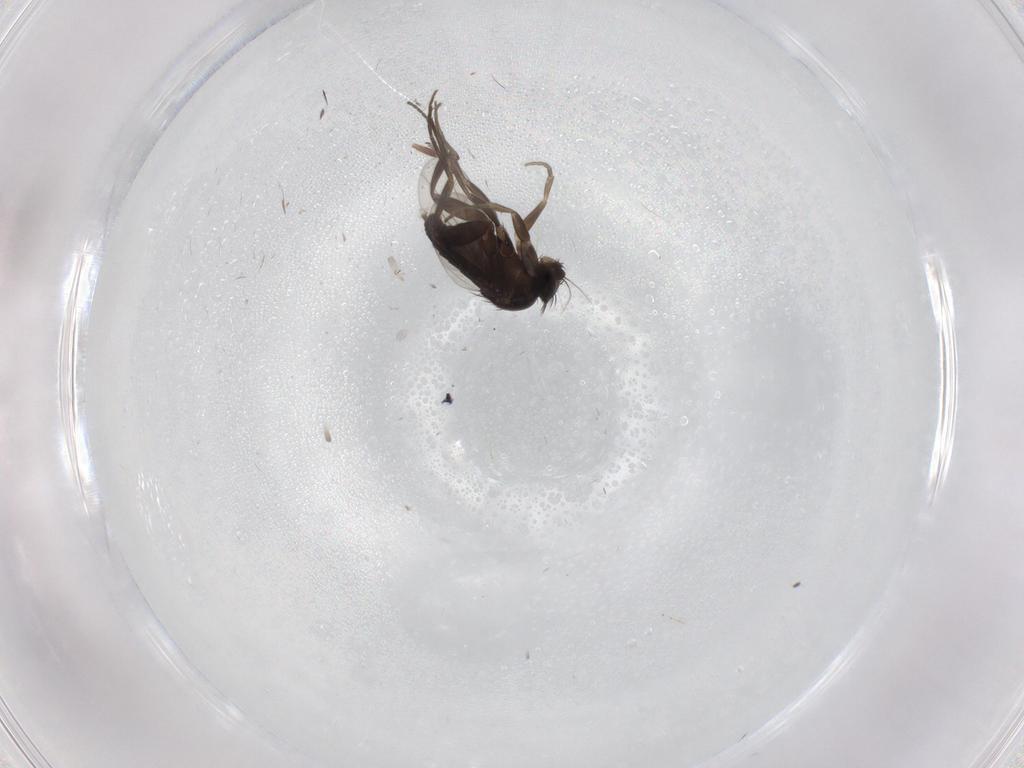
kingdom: Animalia
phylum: Arthropoda
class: Insecta
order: Diptera
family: Phoridae
